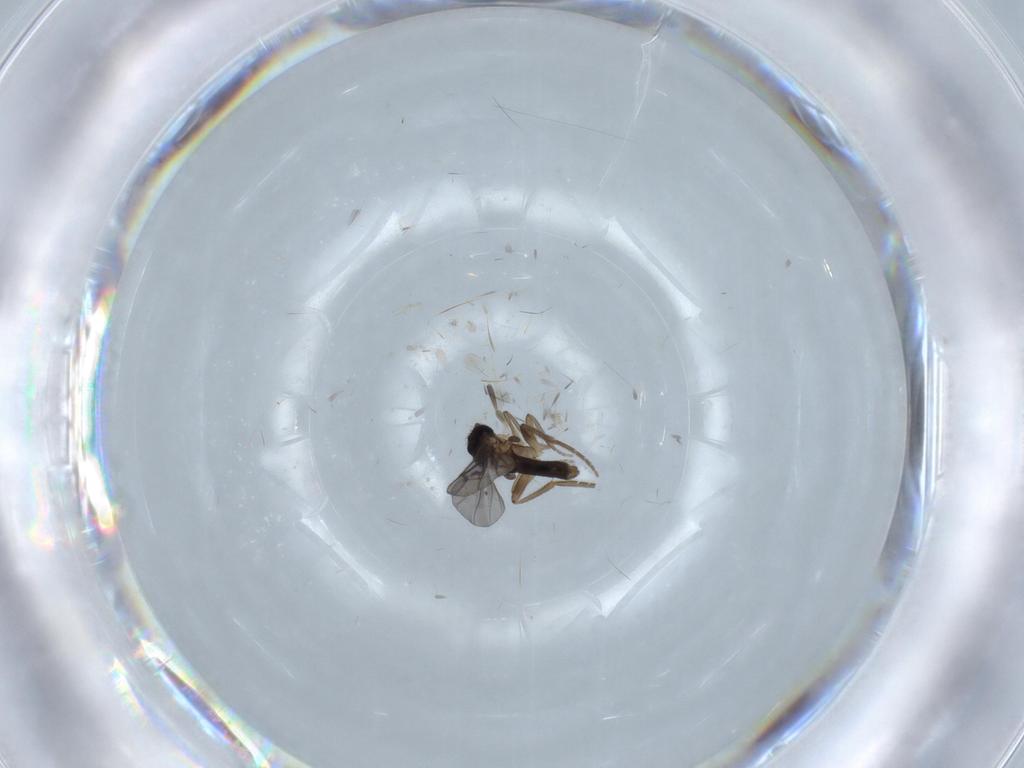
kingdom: Animalia
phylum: Arthropoda
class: Insecta
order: Diptera
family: Phoridae
